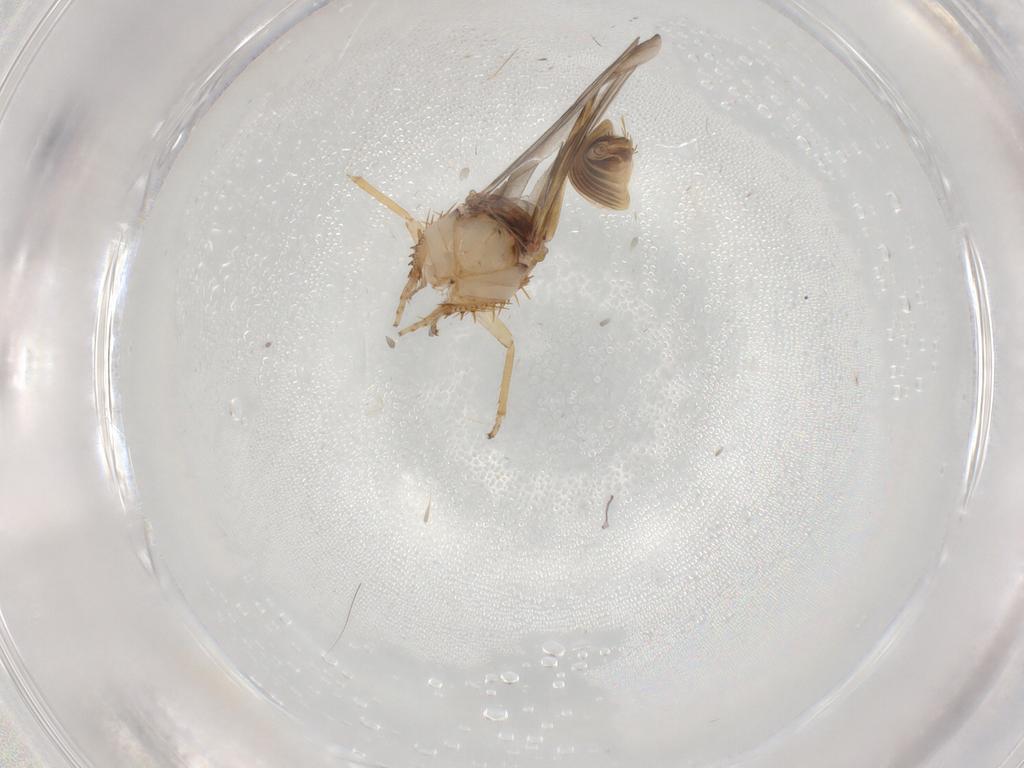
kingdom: Animalia
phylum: Arthropoda
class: Insecta
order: Hemiptera
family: Cicadellidae
